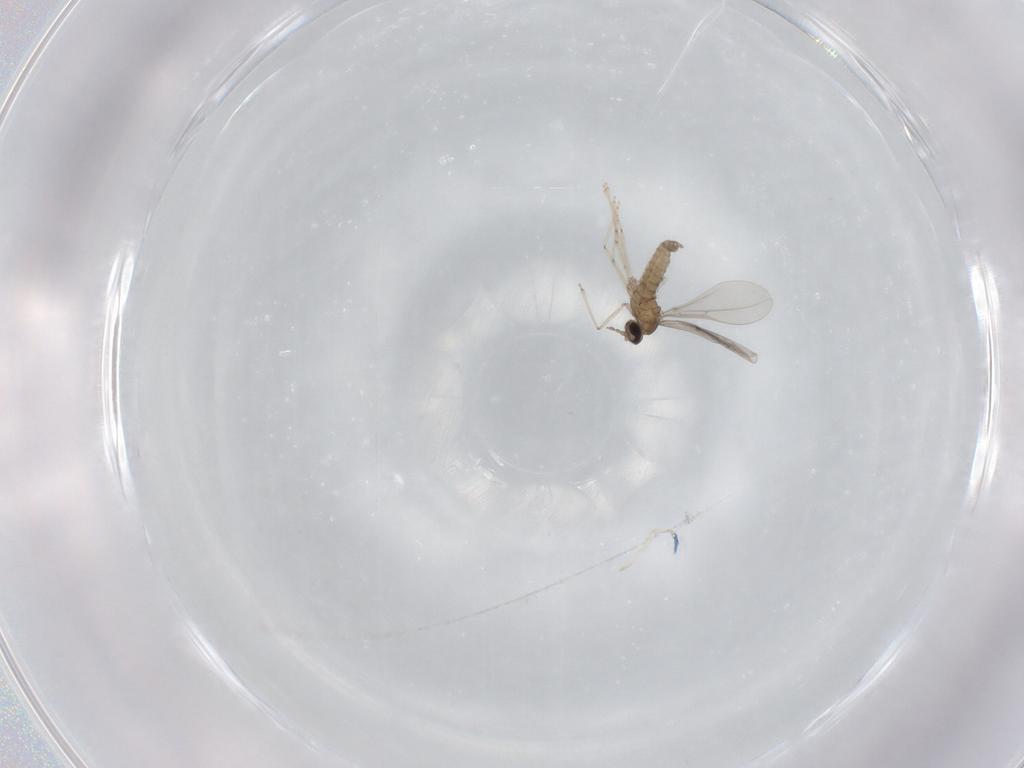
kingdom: Animalia
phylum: Arthropoda
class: Insecta
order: Diptera
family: Cecidomyiidae
